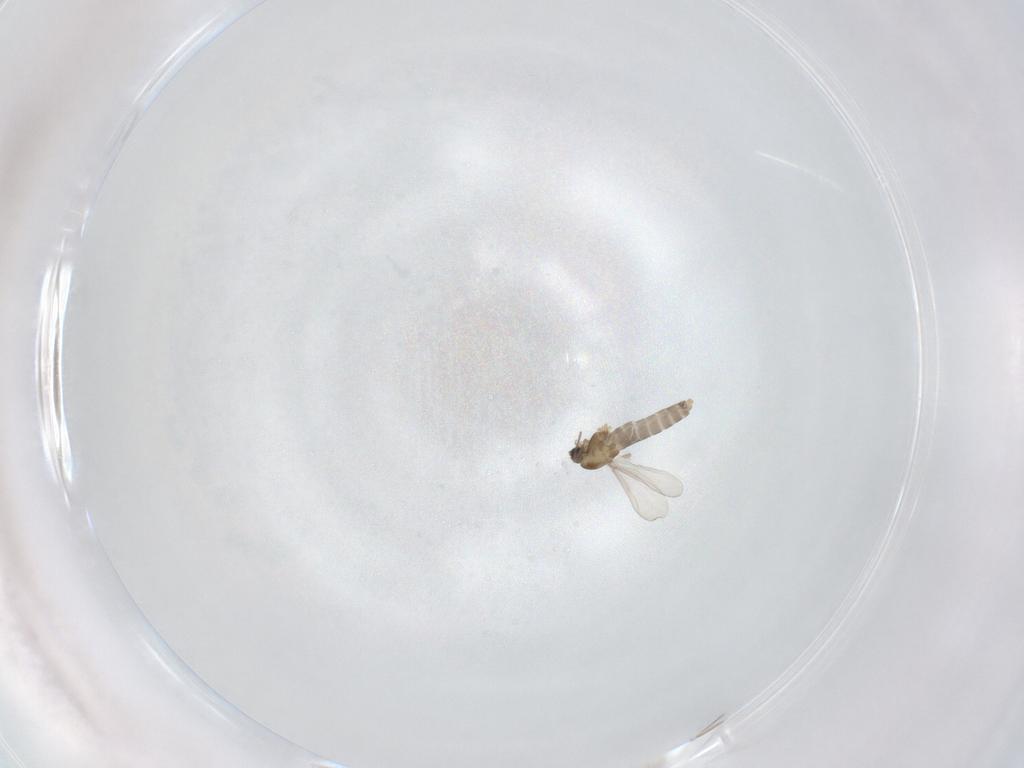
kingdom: Animalia
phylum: Arthropoda
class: Insecta
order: Diptera
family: Chironomidae
